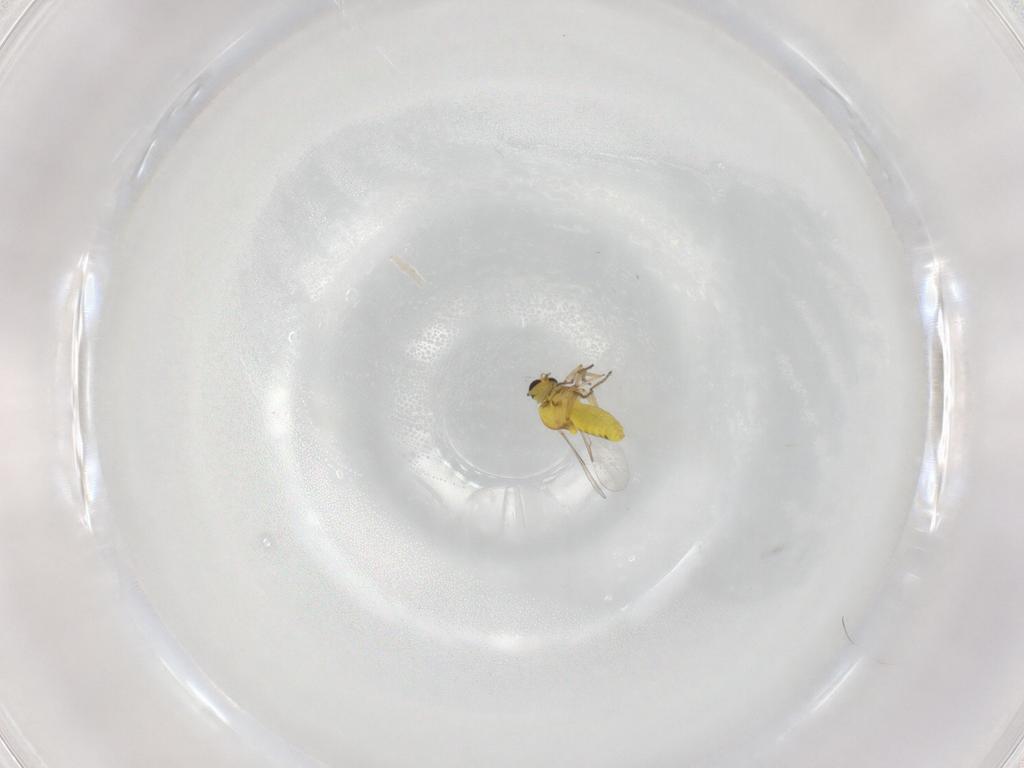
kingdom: Animalia
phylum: Arthropoda
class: Insecta
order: Diptera
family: Ceratopogonidae
